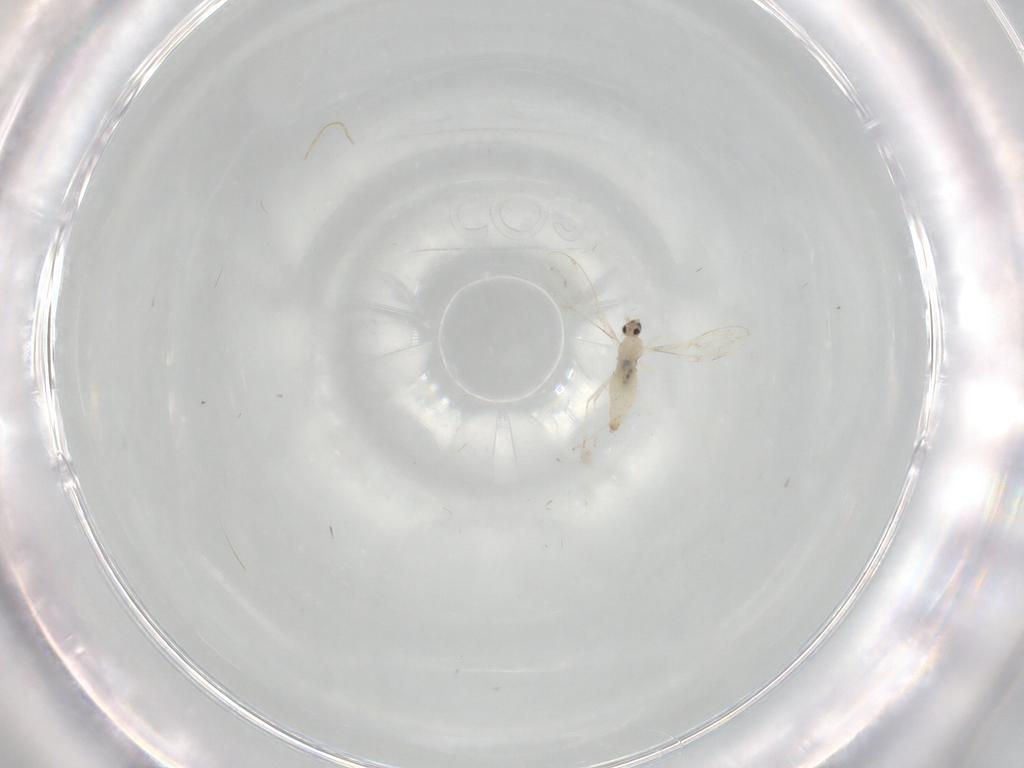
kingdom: Animalia
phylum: Arthropoda
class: Insecta
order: Diptera
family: Cecidomyiidae
